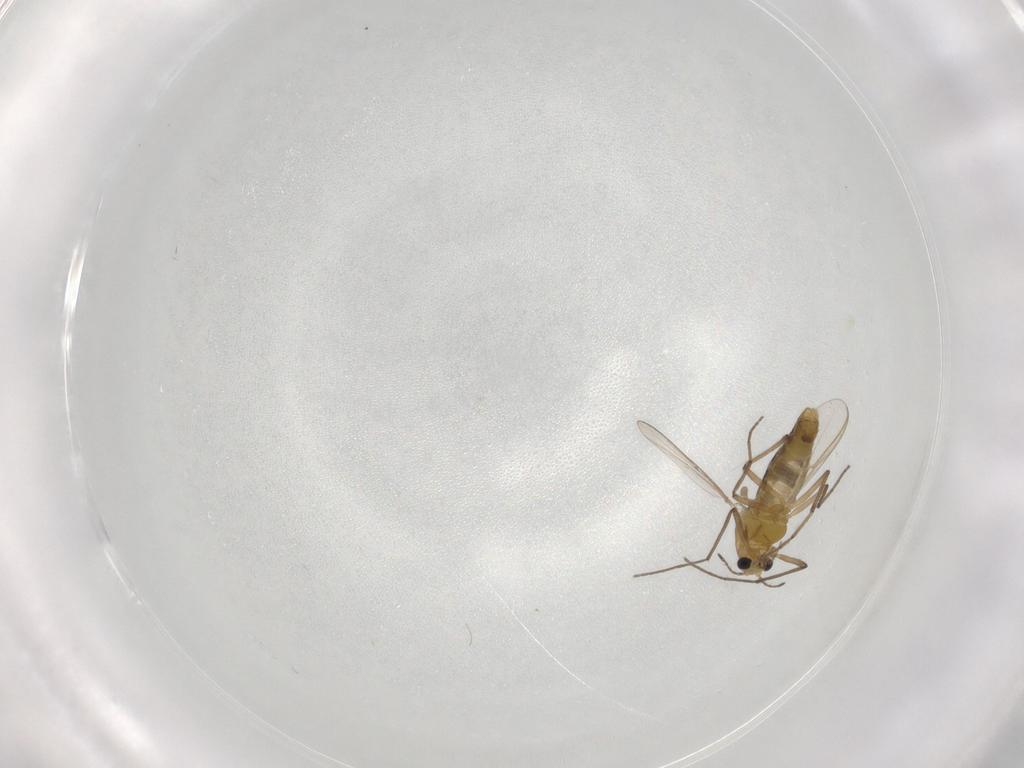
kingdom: Animalia
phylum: Arthropoda
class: Insecta
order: Diptera
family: Chironomidae
